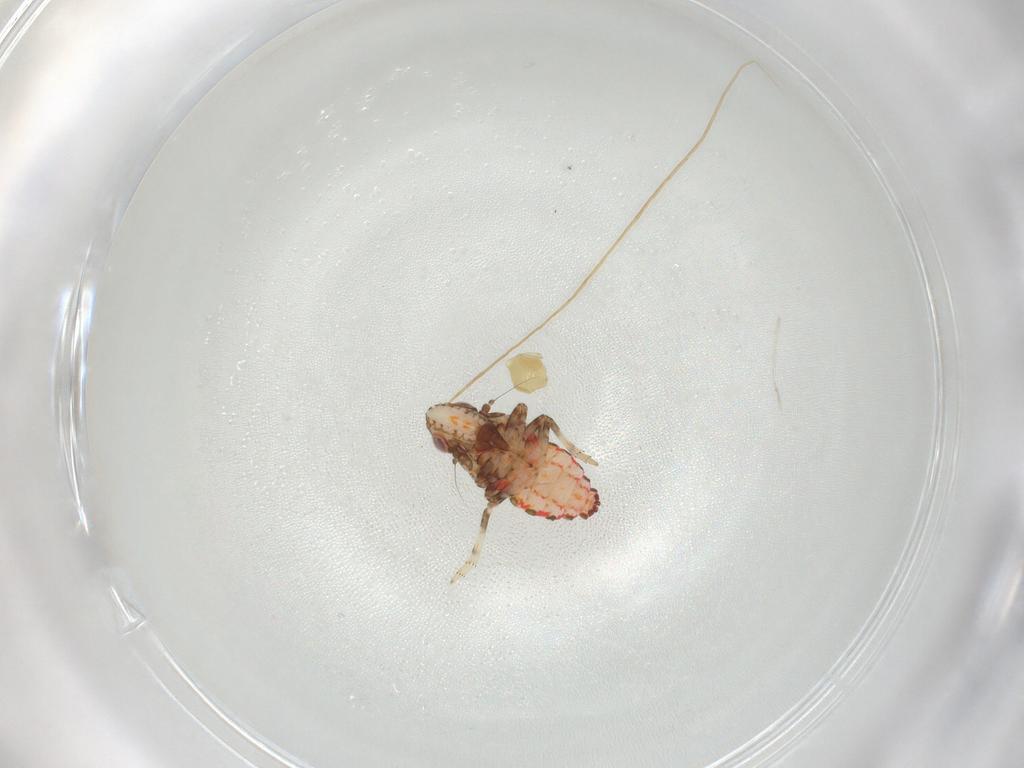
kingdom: Animalia
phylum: Arthropoda
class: Insecta
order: Hemiptera
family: Tropiduchidae
